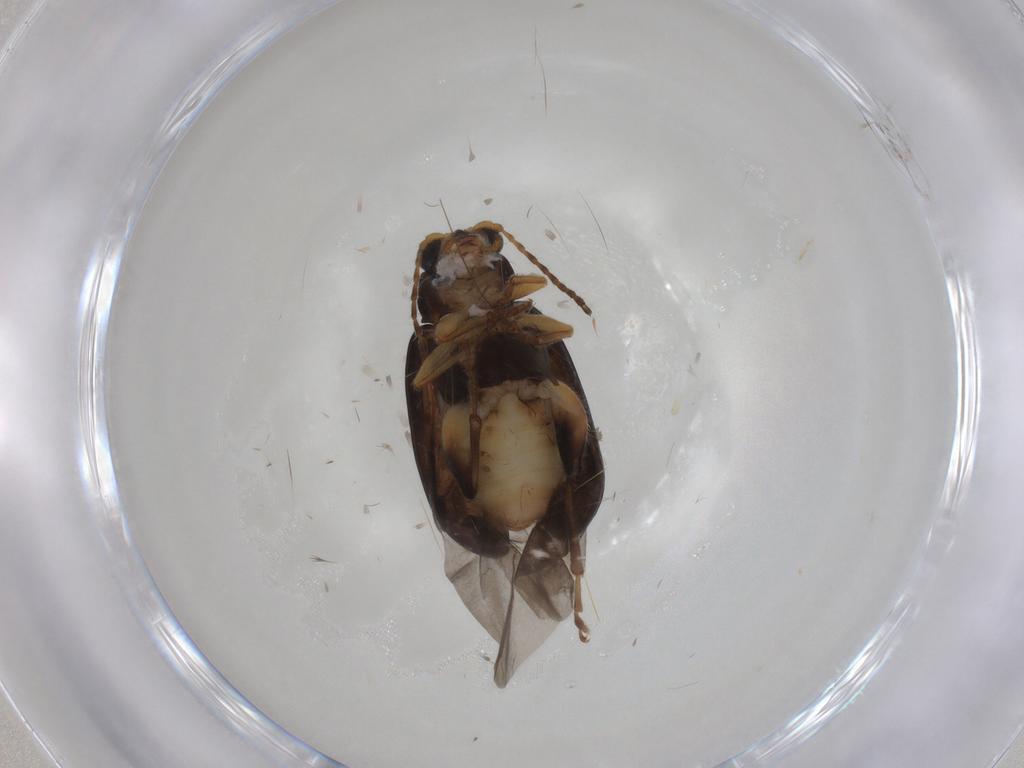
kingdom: Animalia
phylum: Arthropoda
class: Insecta
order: Coleoptera
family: Chrysomelidae
